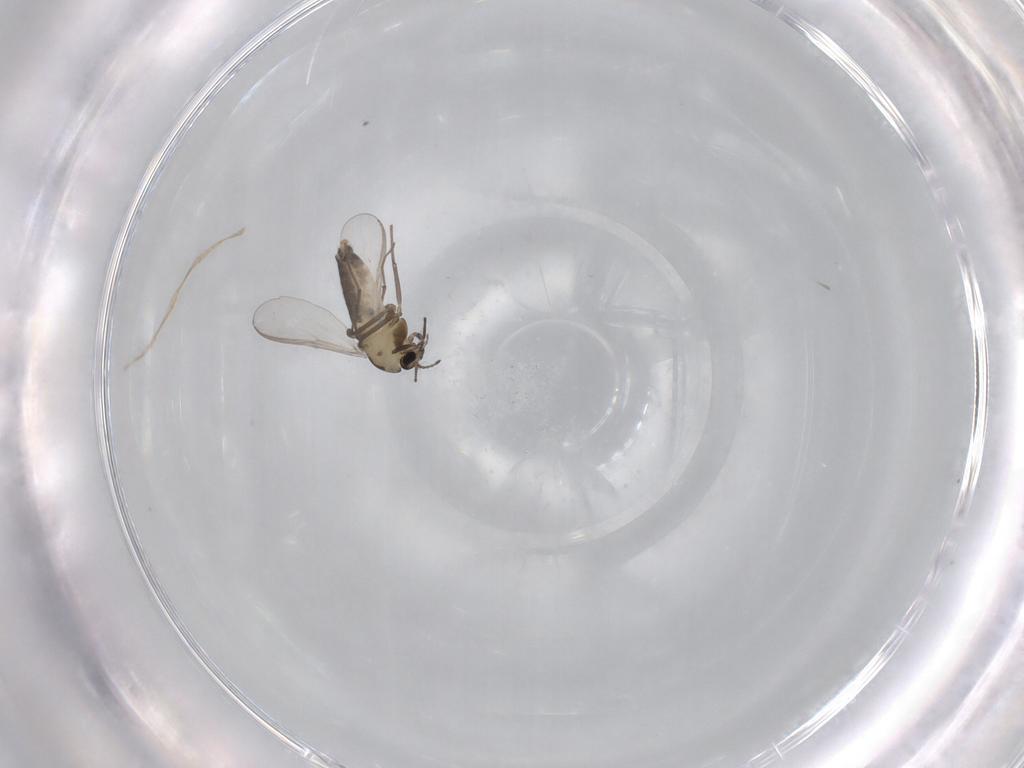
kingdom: Animalia
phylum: Arthropoda
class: Insecta
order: Diptera
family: Chironomidae
